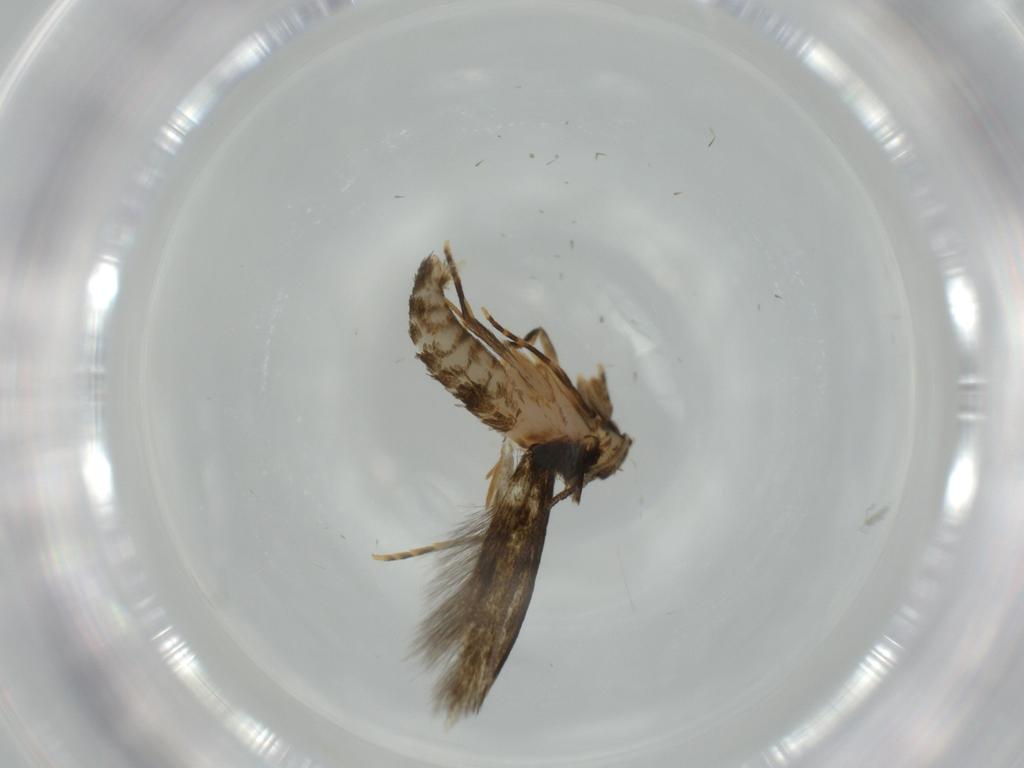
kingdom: Animalia
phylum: Arthropoda
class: Insecta
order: Lepidoptera
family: Tineidae
